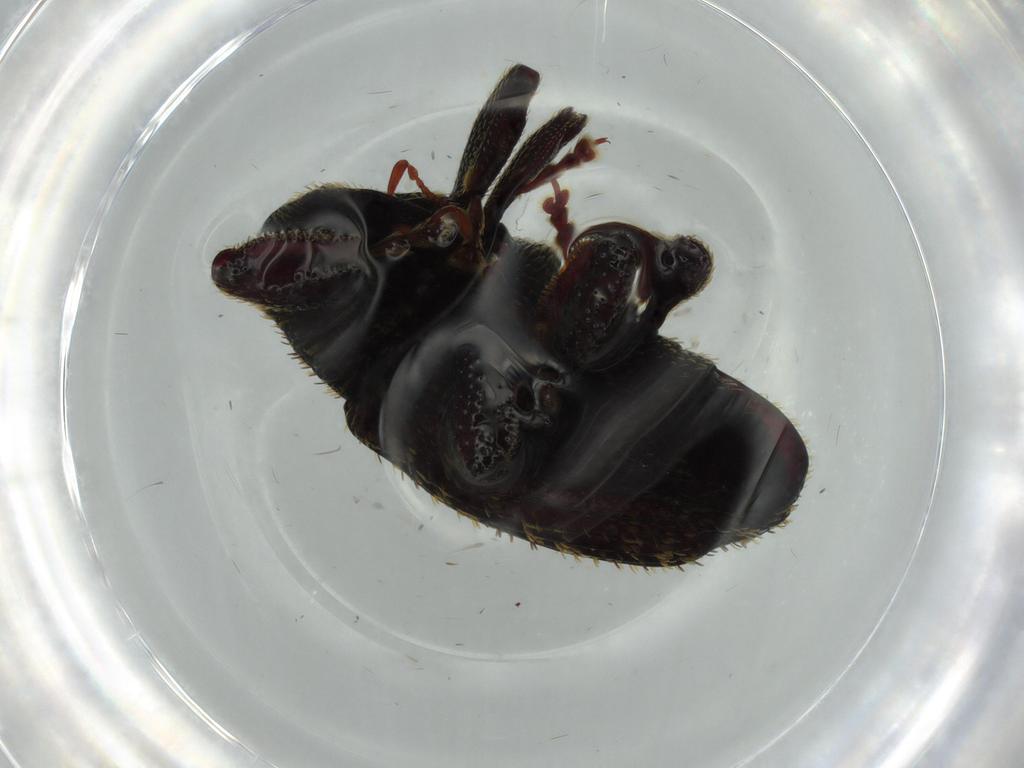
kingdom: Animalia
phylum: Arthropoda
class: Insecta
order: Coleoptera
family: Curculionidae
